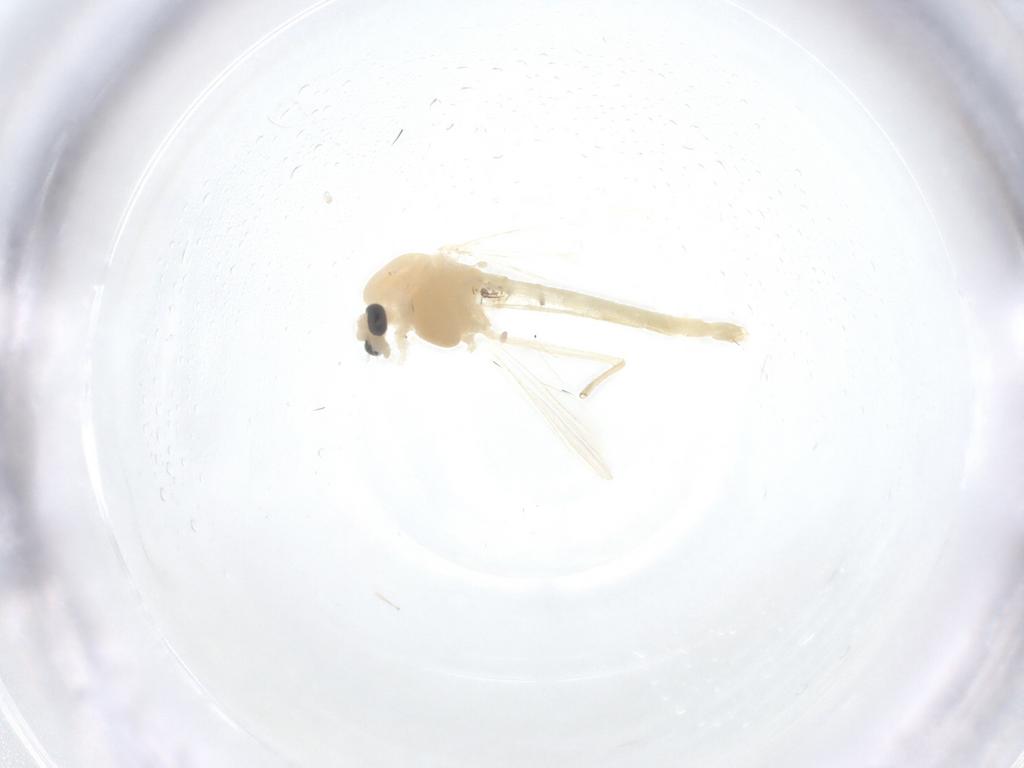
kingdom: Animalia
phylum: Arthropoda
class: Insecta
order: Diptera
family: Chironomidae
